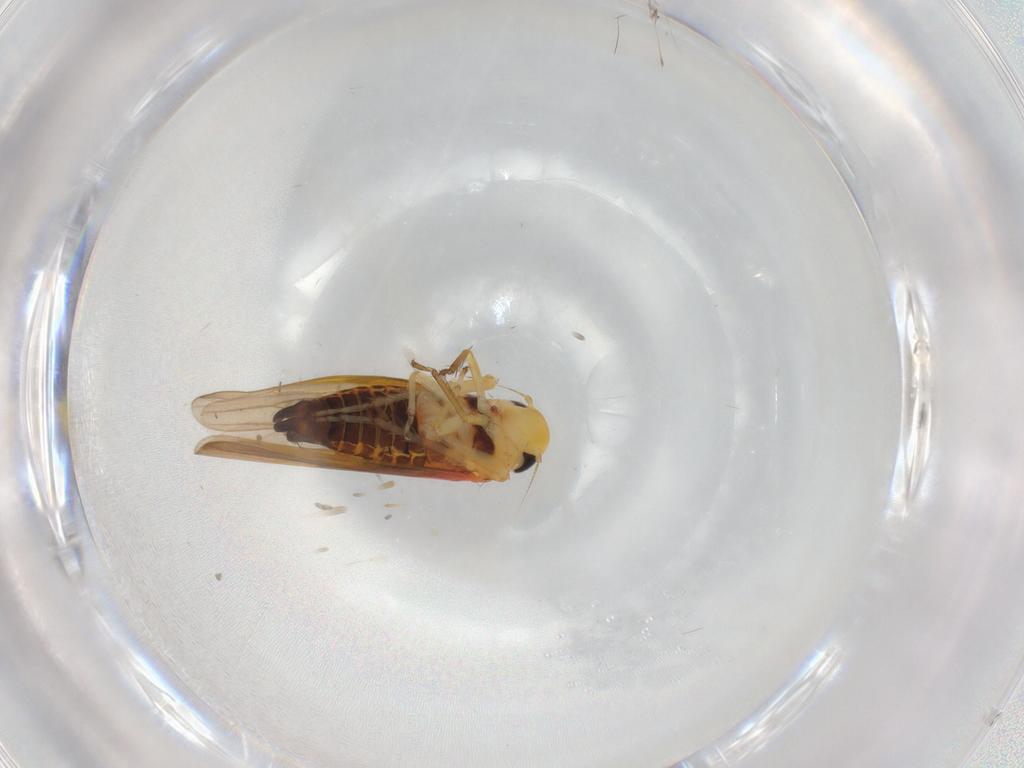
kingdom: Animalia
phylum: Arthropoda
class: Insecta
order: Hemiptera
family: Cicadellidae
